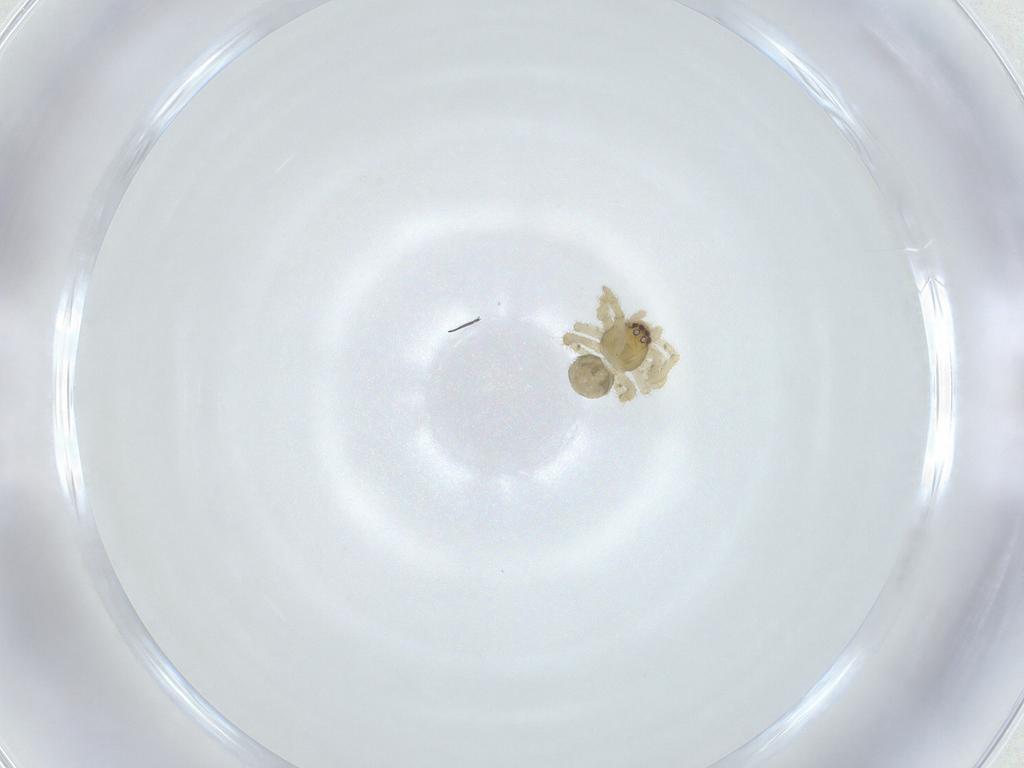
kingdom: Animalia
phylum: Arthropoda
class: Arachnida
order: Araneae
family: Theridiidae
